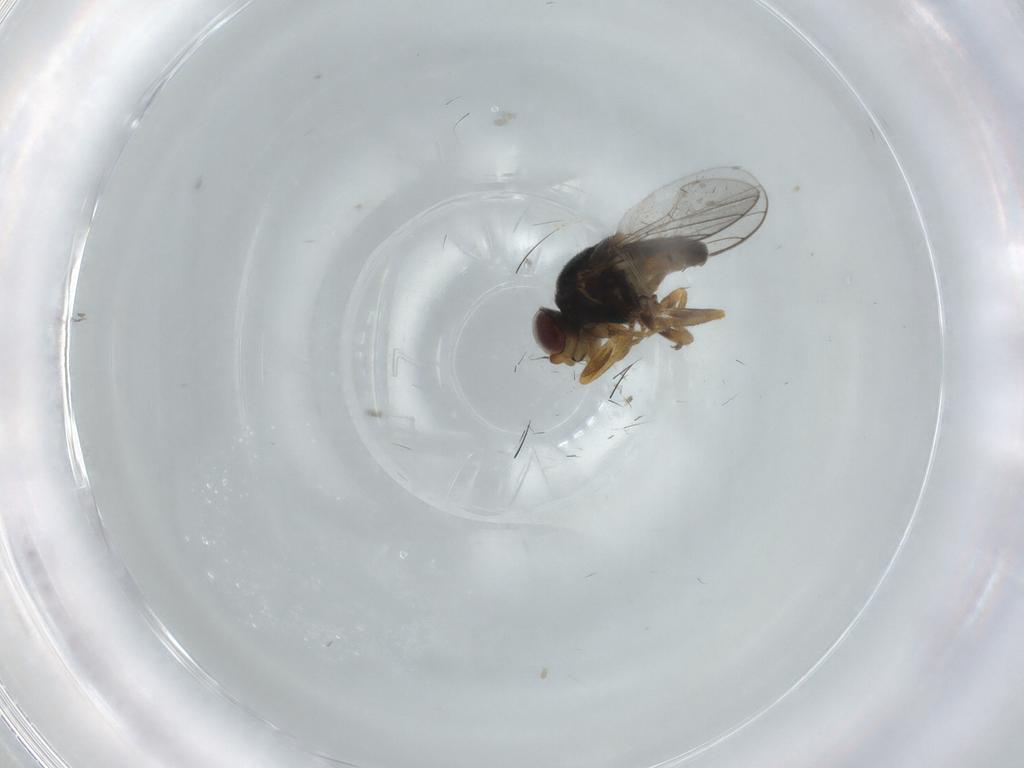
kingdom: Animalia
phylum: Arthropoda
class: Insecta
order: Diptera
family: Chloropidae
